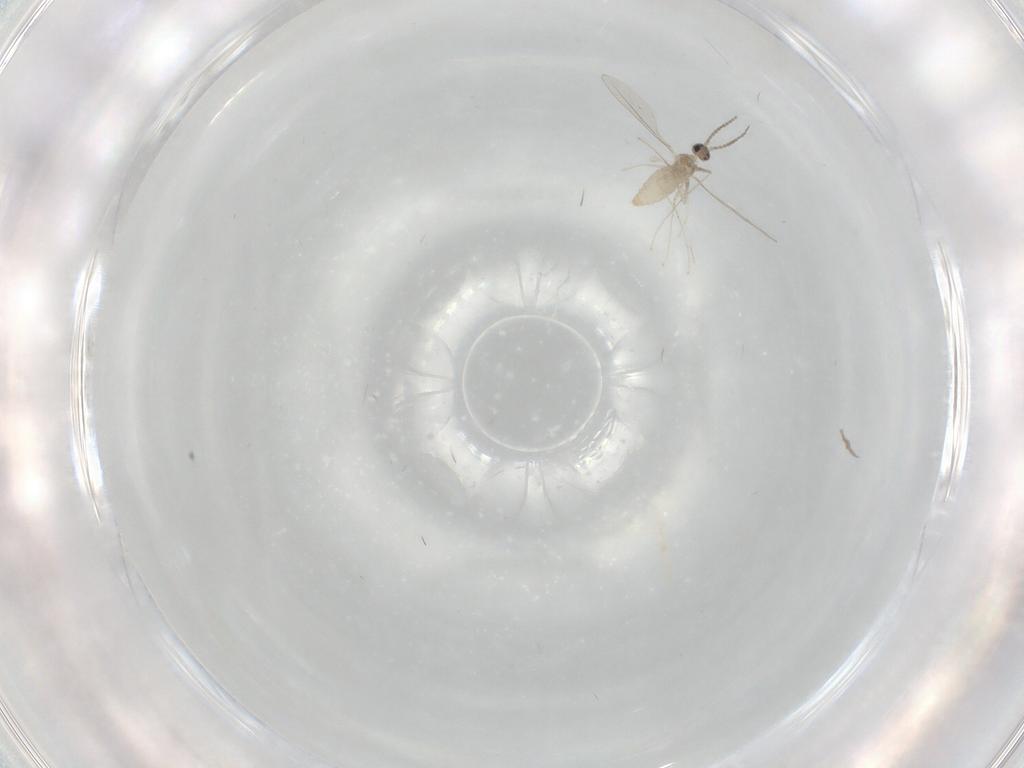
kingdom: Animalia
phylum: Arthropoda
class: Insecta
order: Diptera
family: Cecidomyiidae
